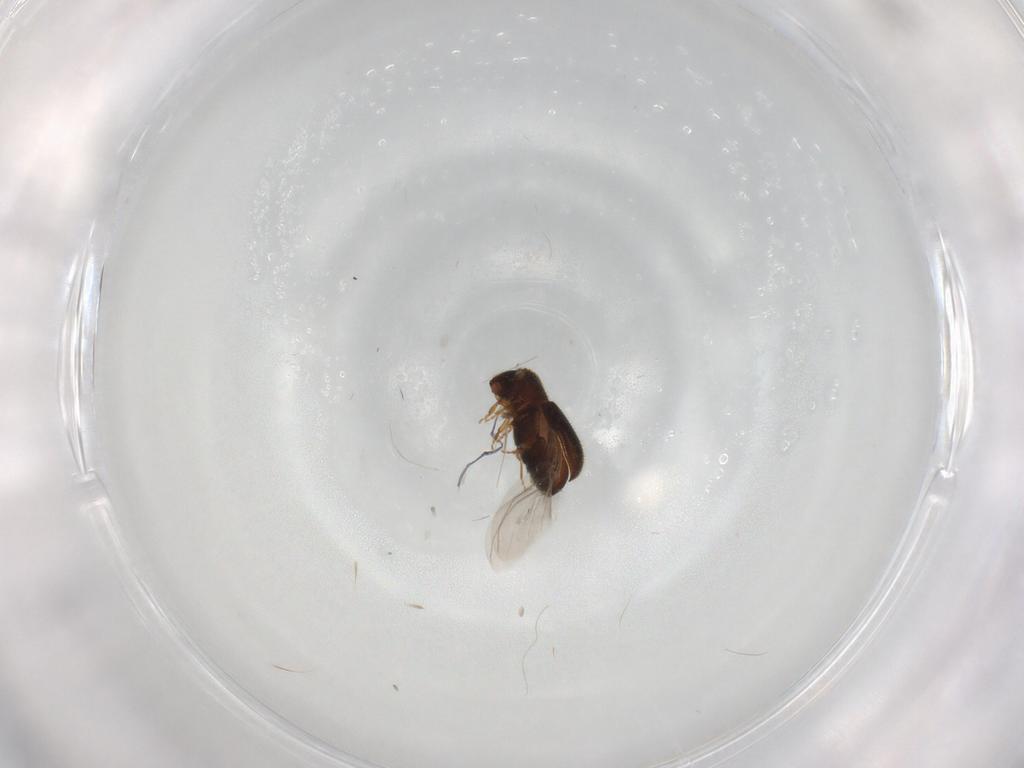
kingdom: Animalia
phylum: Arthropoda
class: Insecta
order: Coleoptera
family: Curculionidae
